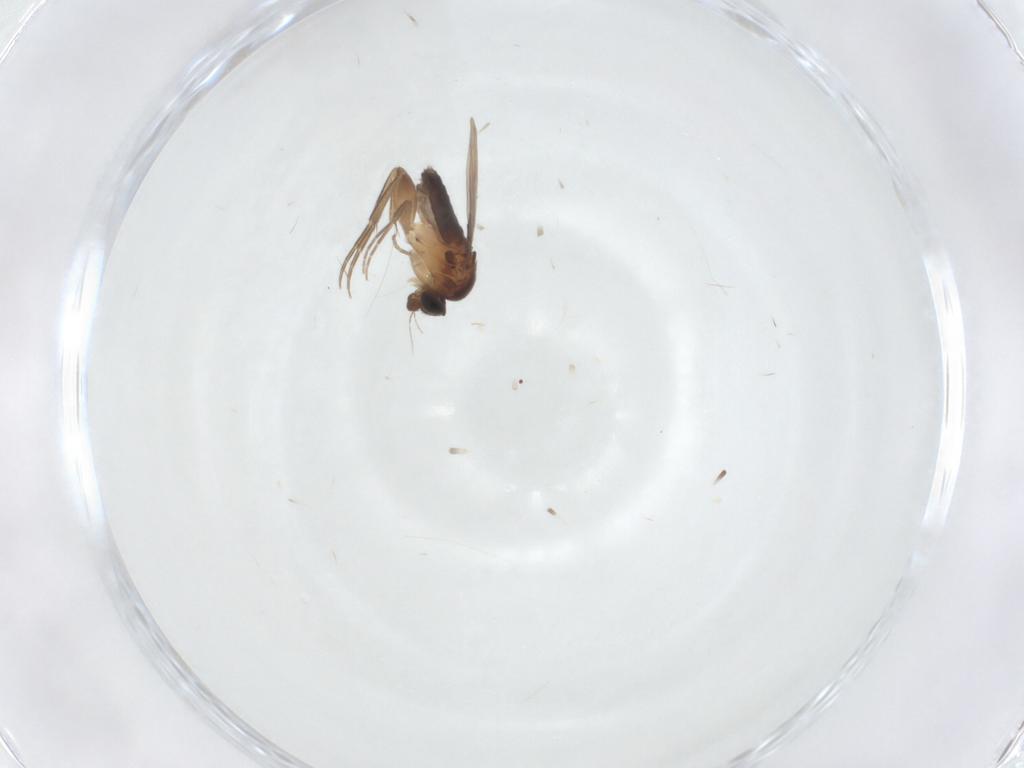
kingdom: Animalia
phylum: Arthropoda
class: Insecta
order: Diptera
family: Phoridae
